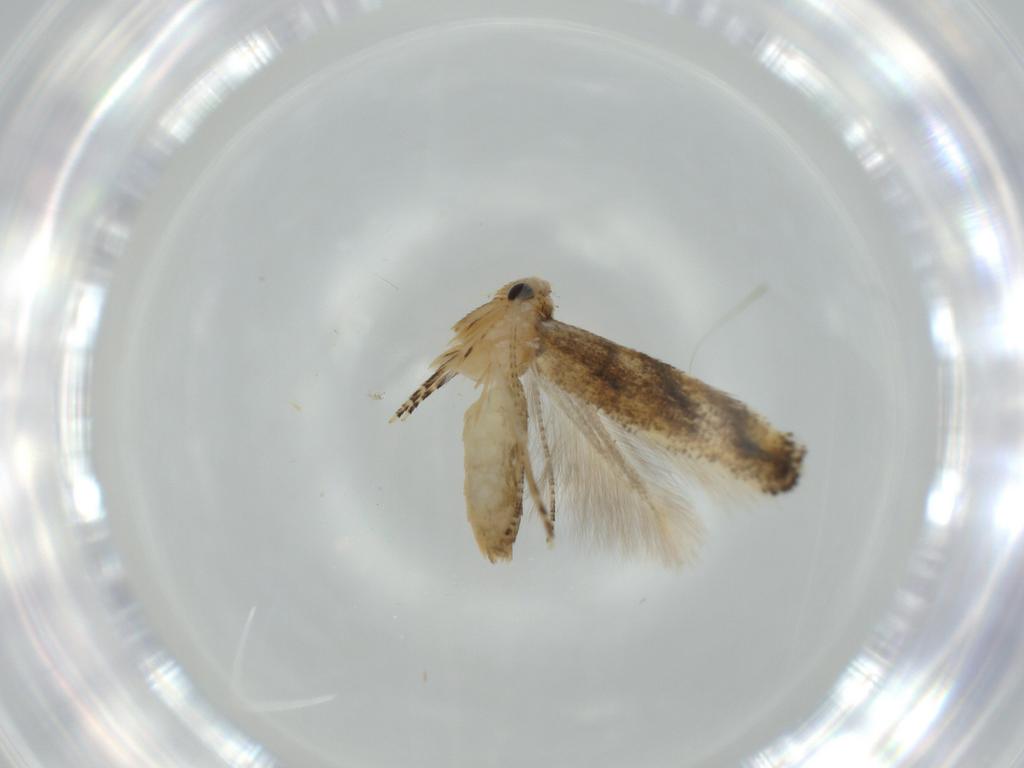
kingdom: Animalia
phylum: Arthropoda
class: Insecta
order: Lepidoptera
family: Bucculatricidae
